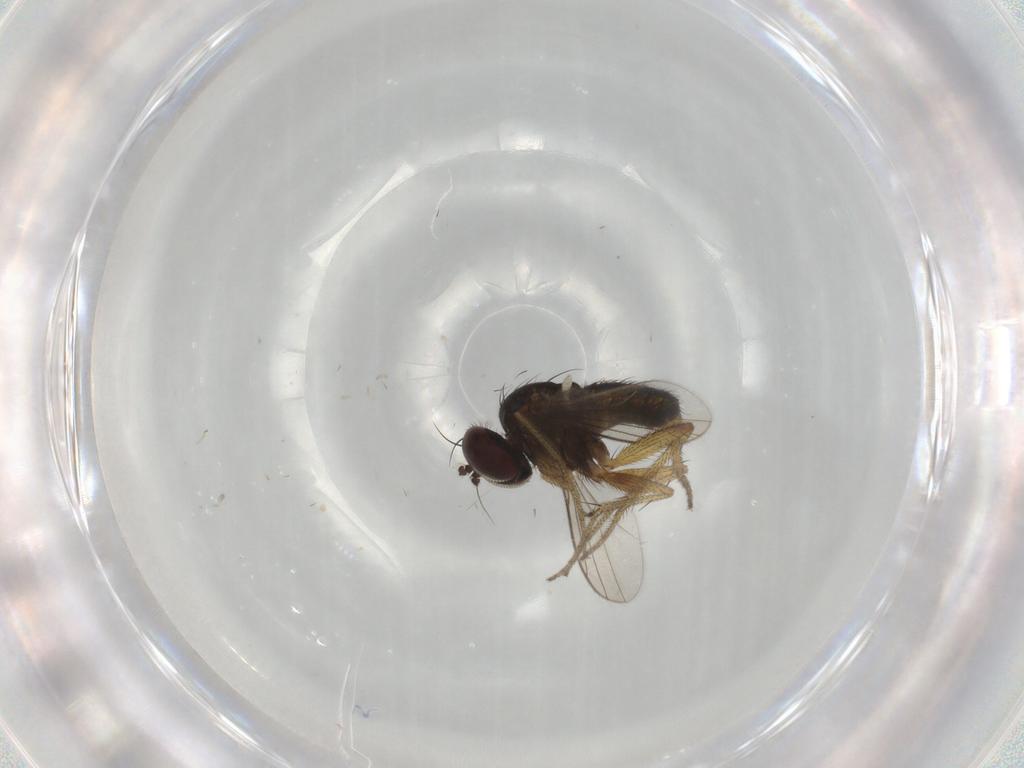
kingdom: Animalia
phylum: Arthropoda
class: Insecta
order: Diptera
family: Dolichopodidae
